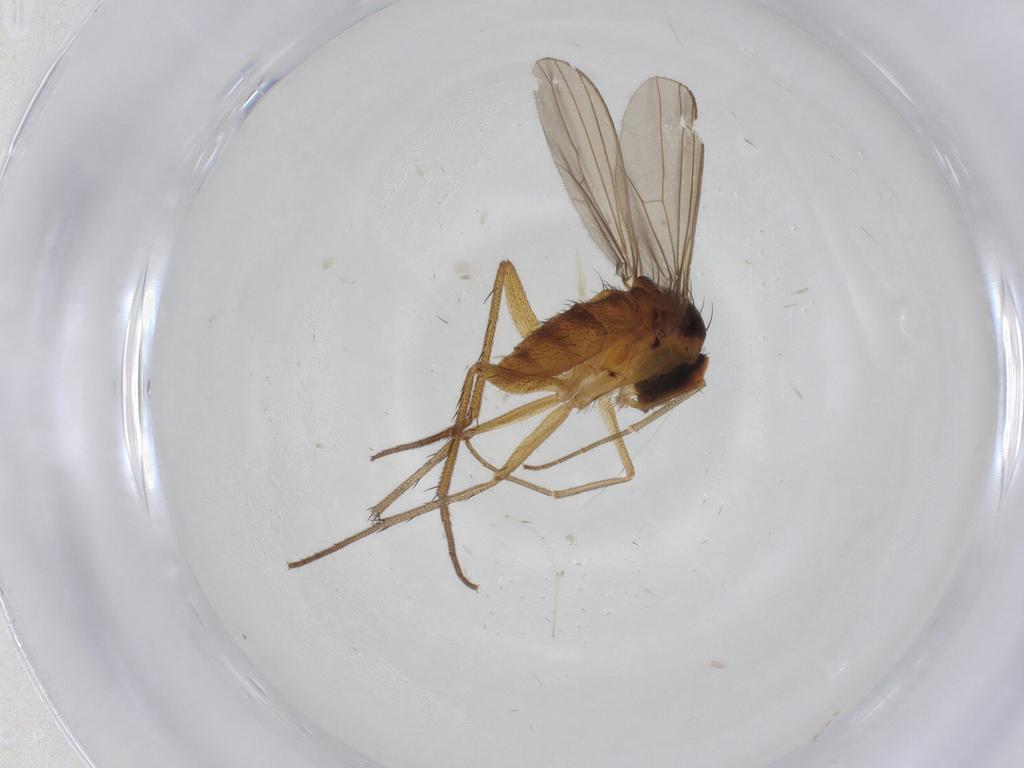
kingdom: Animalia
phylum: Arthropoda
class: Insecta
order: Diptera
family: Dolichopodidae
